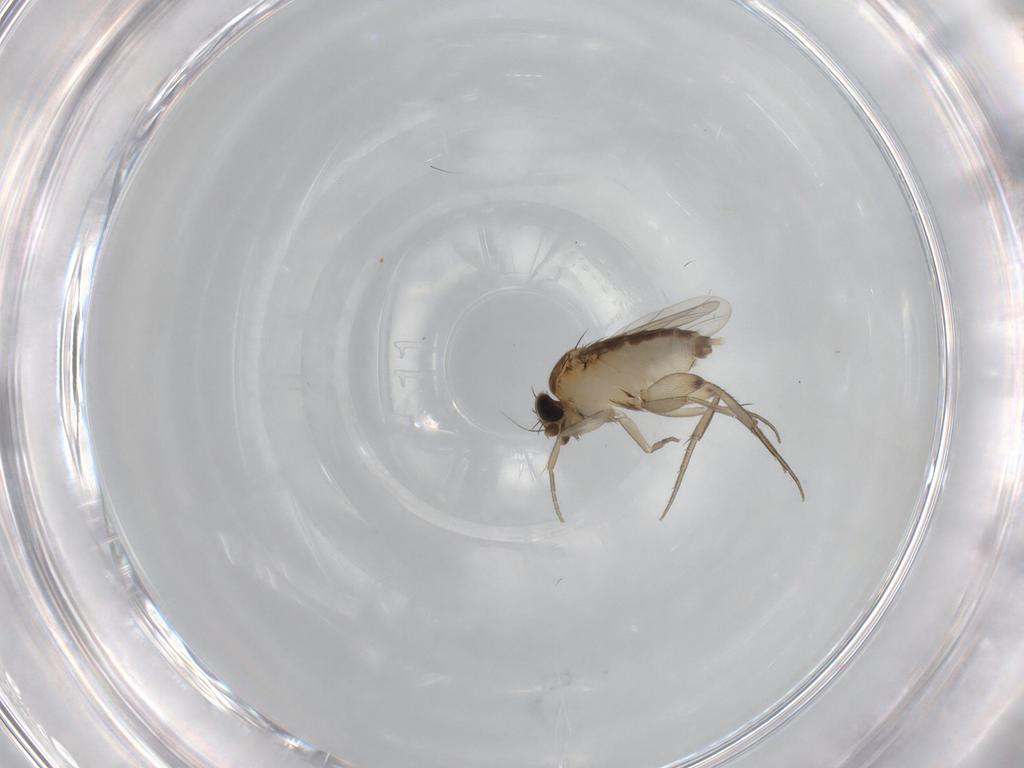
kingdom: Animalia
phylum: Arthropoda
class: Insecta
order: Diptera
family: Phoridae
